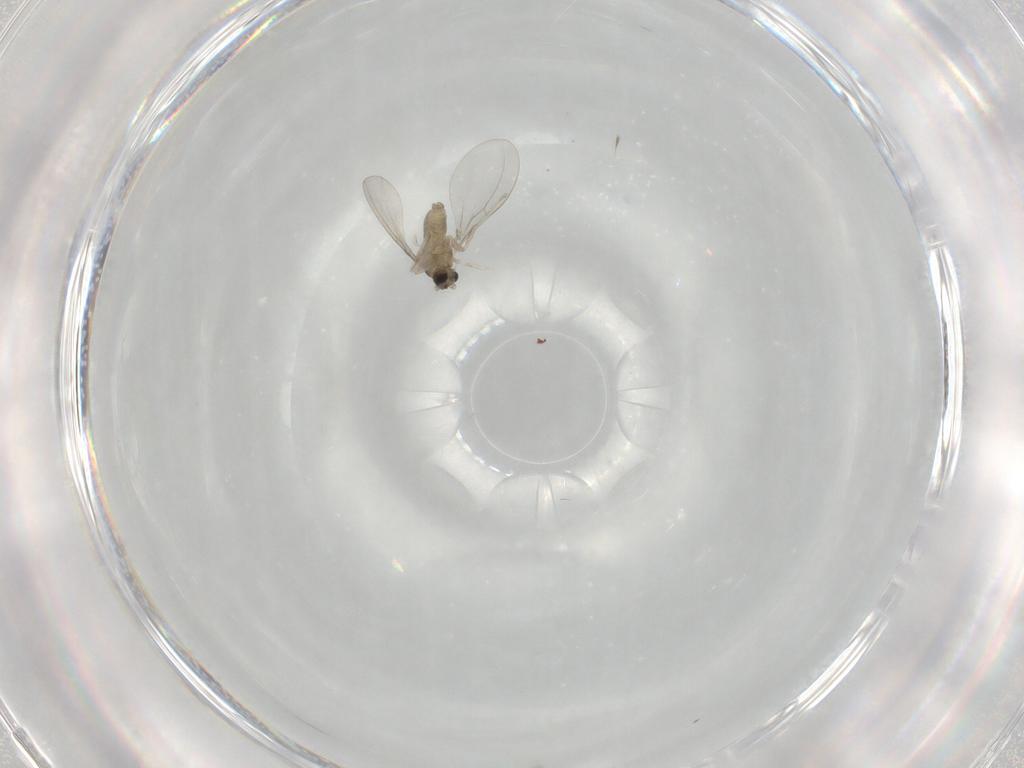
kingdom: Animalia
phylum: Arthropoda
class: Insecta
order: Diptera
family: Cecidomyiidae
